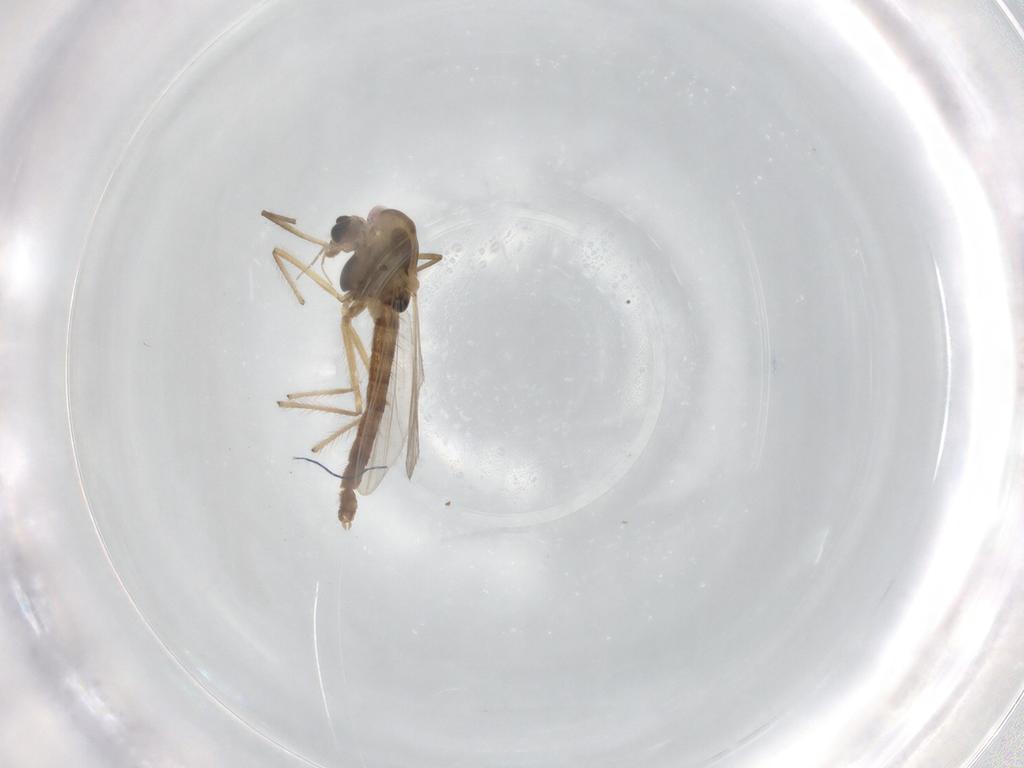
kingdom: Animalia
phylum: Arthropoda
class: Insecta
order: Diptera
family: Chironomidae
